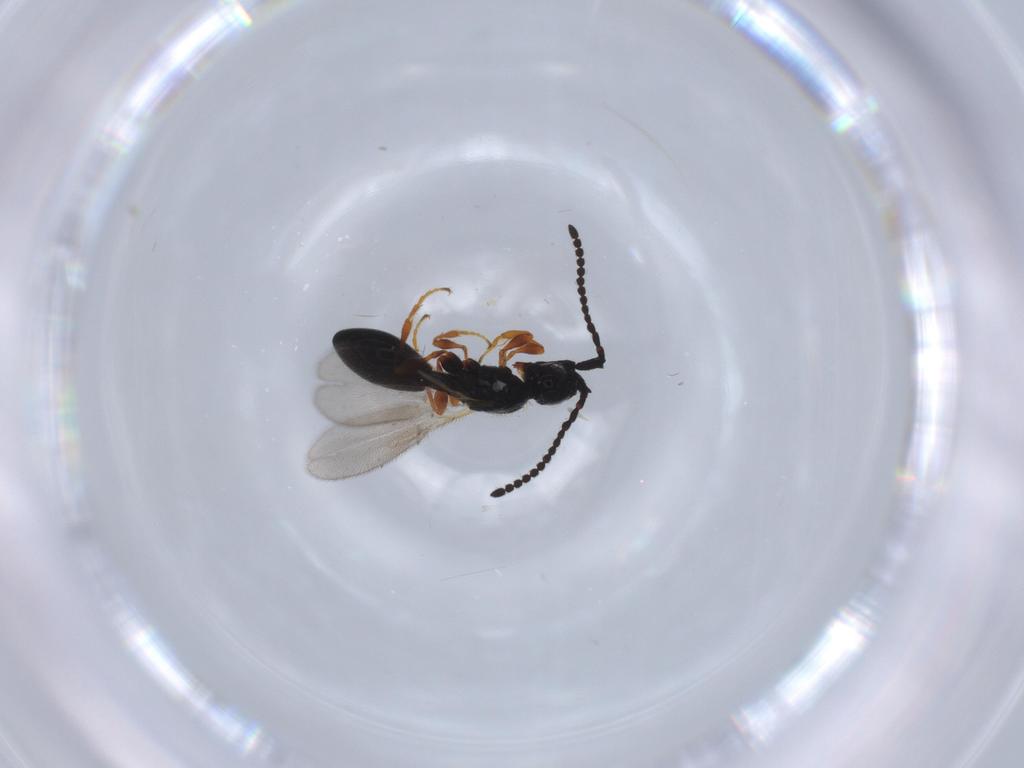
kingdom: Animalia
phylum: Arthropoda
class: Insecta
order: Hymenoptera
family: Diapriidae
